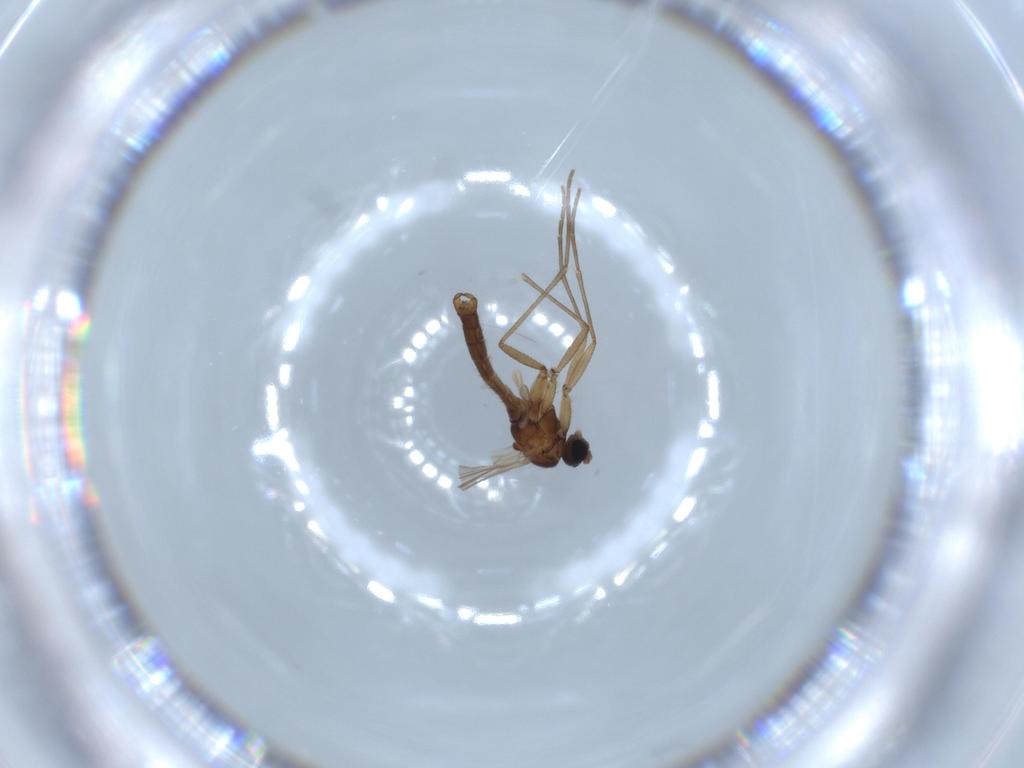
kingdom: Animalia
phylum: Arthropoda
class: Insecta
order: Diptera
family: Sciaridae
